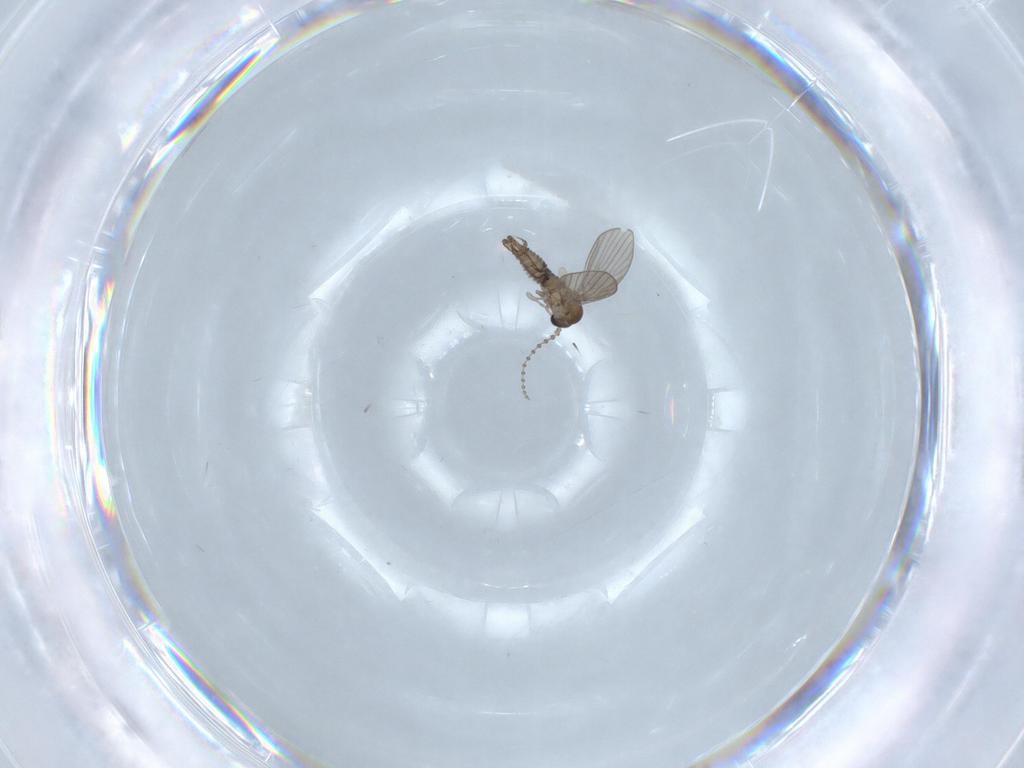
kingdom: Animalia
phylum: Arthropoda
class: Insecta
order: Diptera
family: Psychodidae
